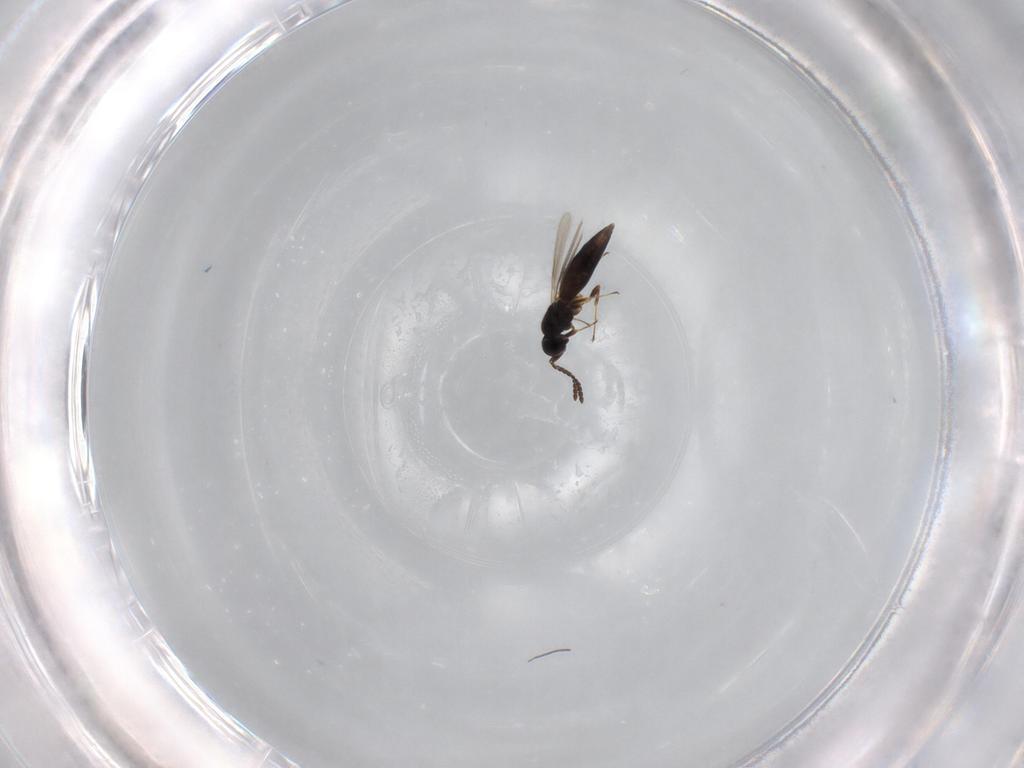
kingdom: Animalia
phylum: Arthropoda
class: Insecta
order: Hymenoptera
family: Scelionidae
